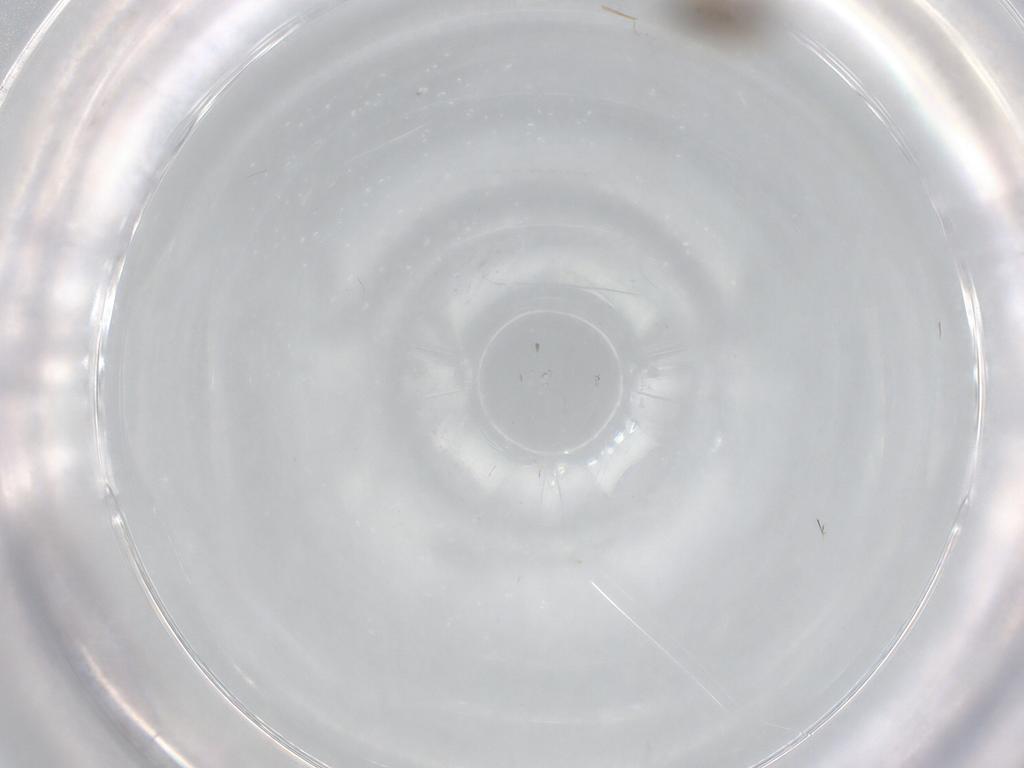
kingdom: Animalia
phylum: Arthropoda
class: Insecta
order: Diptera
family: Cecidomyiidae
